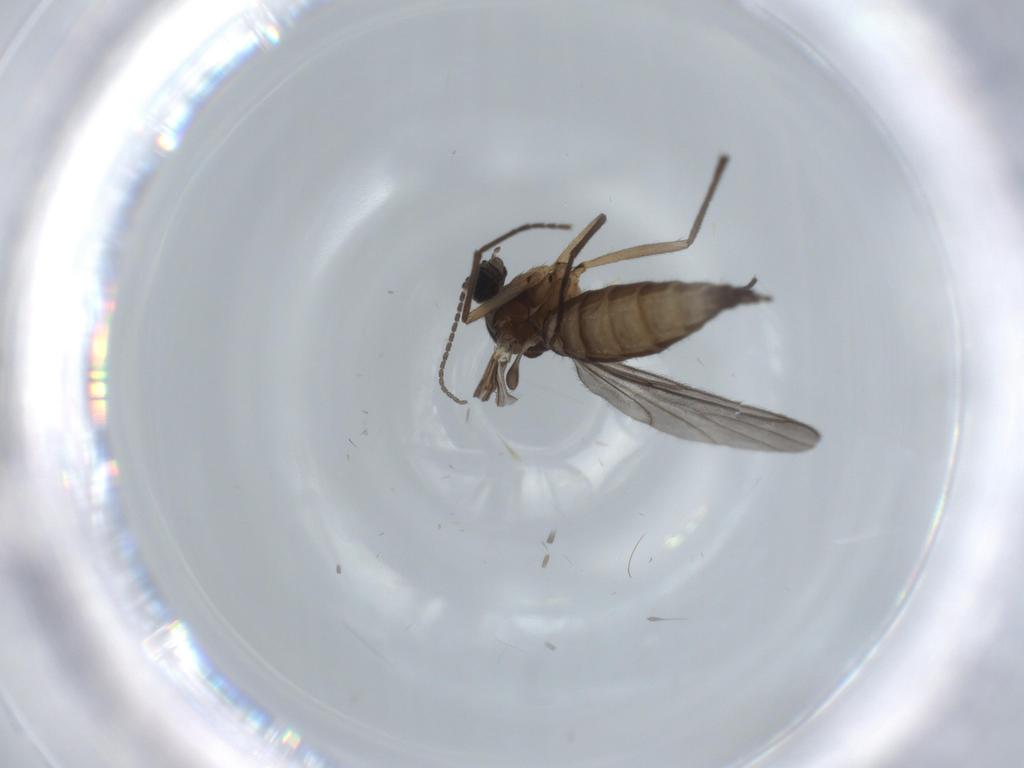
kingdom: Animalia
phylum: Arthropoda
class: Insecta
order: Diptera
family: Sciaridae
